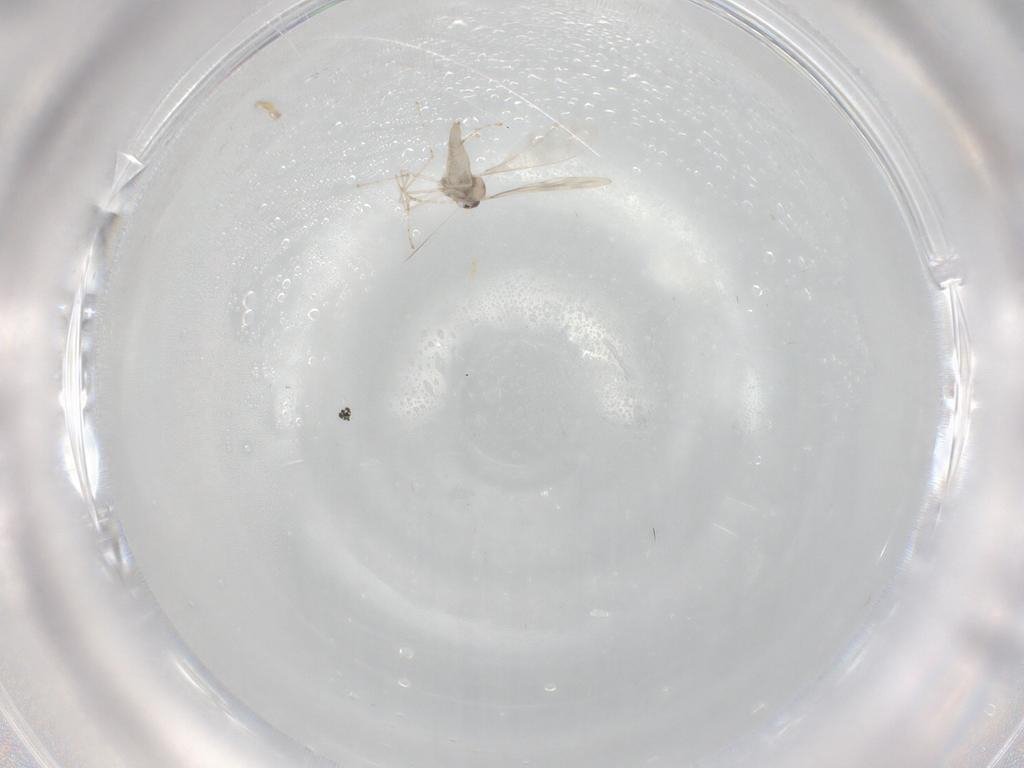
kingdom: Animalia
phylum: Arthropoda
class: Insecta
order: Diptera
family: Cecidomyiidae
